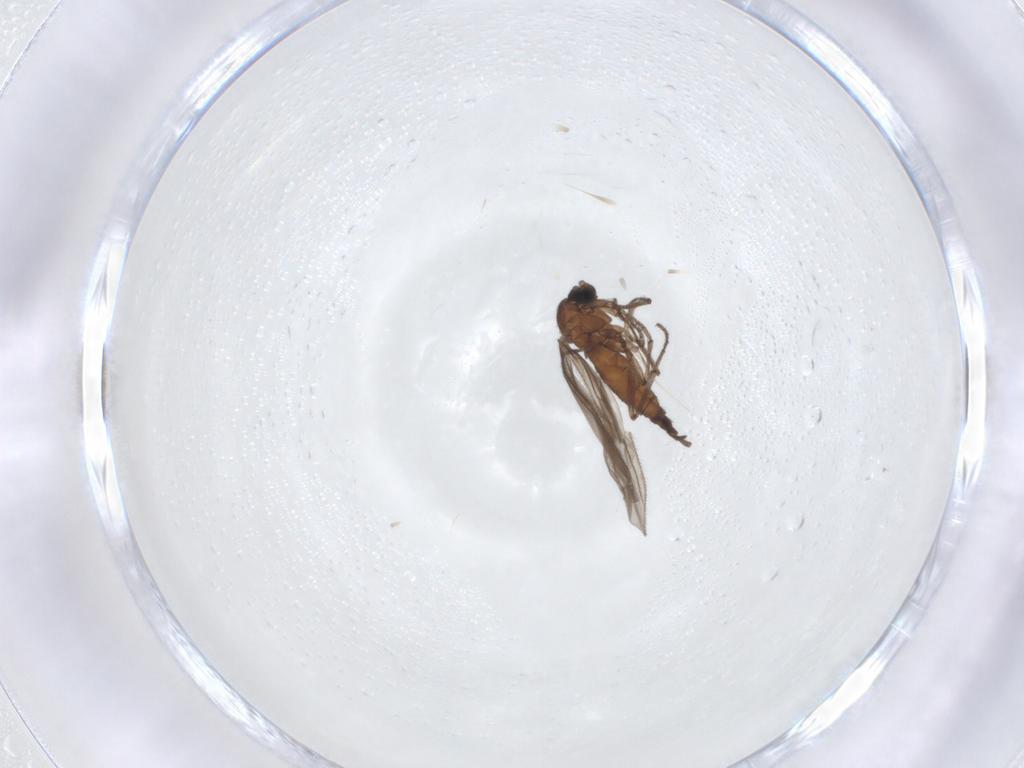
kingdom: Animalia
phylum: Arthropoda
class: Insecta
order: Diptera
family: Sciaridae
